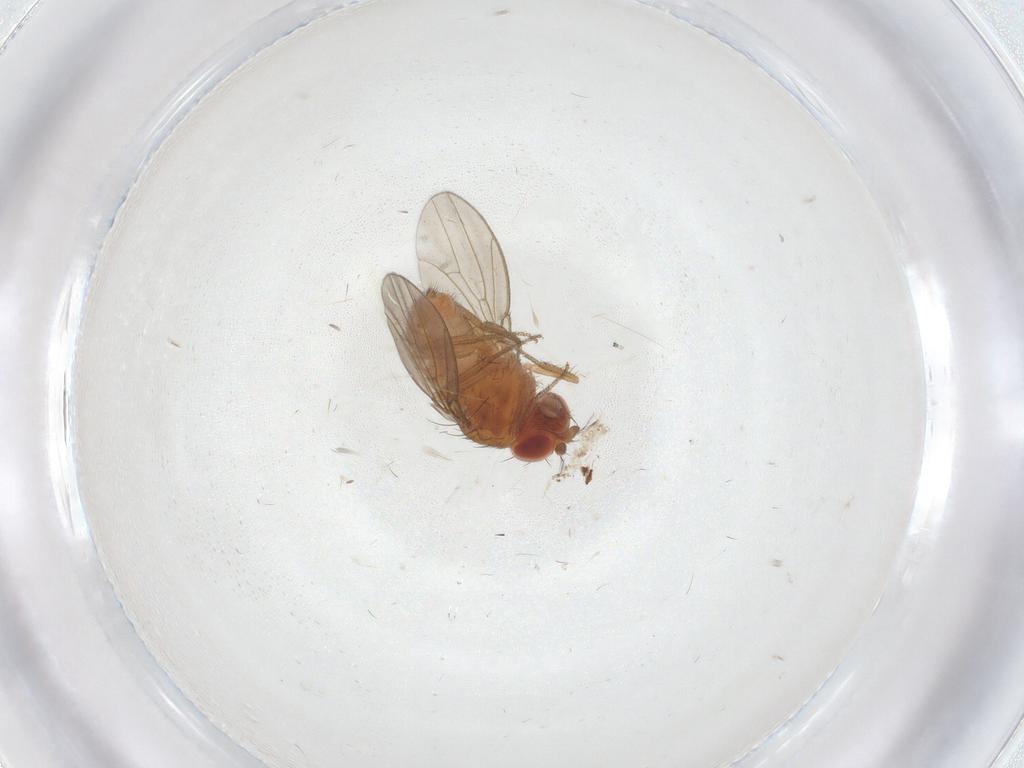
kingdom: Animalia
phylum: Arthropoda
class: Insecta
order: Diptera
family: Drosophilidae
